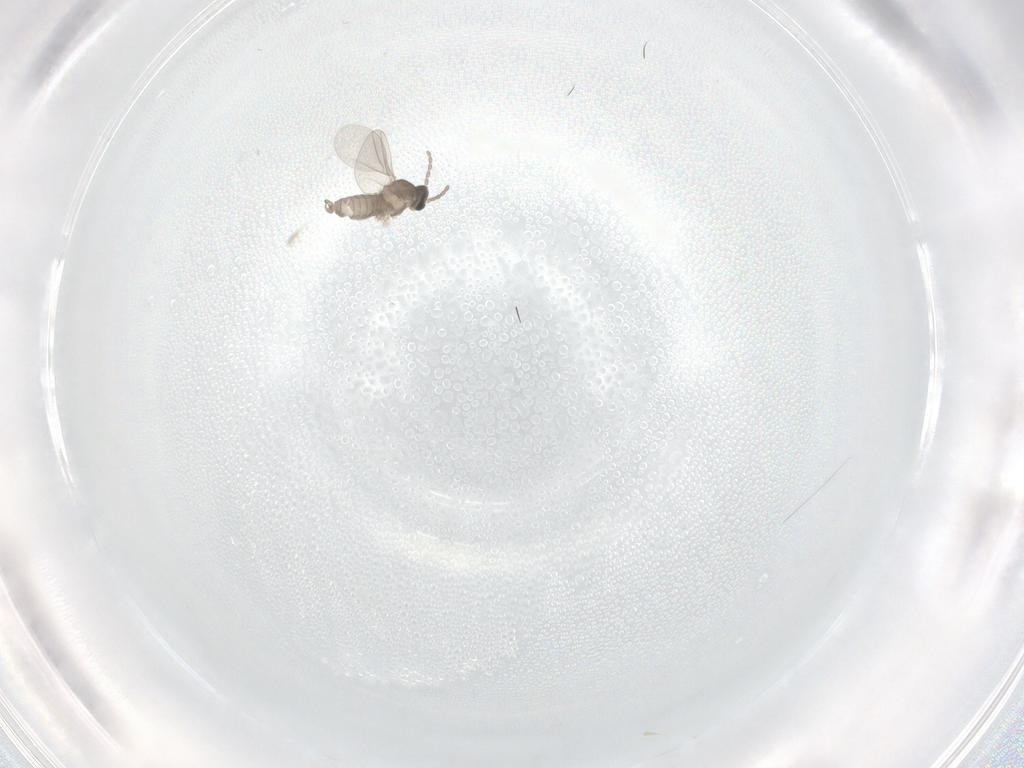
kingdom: Animalia
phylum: Arthropoda
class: Insecta
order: Diptera
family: Cecidomyiidae
